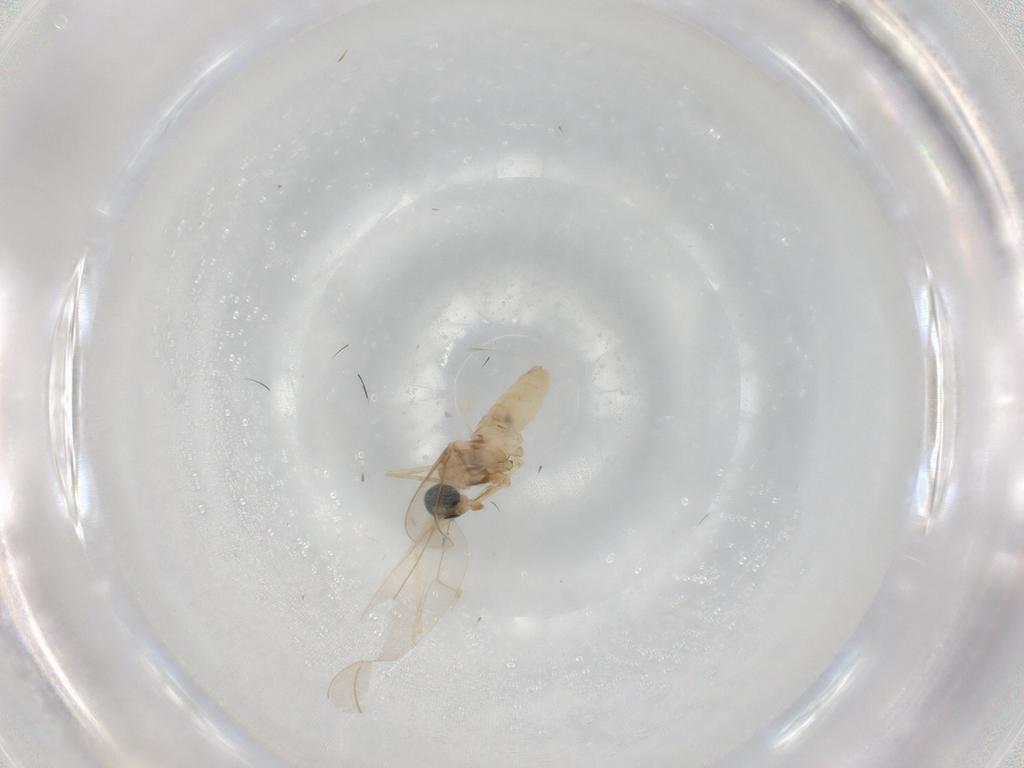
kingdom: Animalia
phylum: Arthropoda
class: Insecta
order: Diptera
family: Cecidomyiidae
